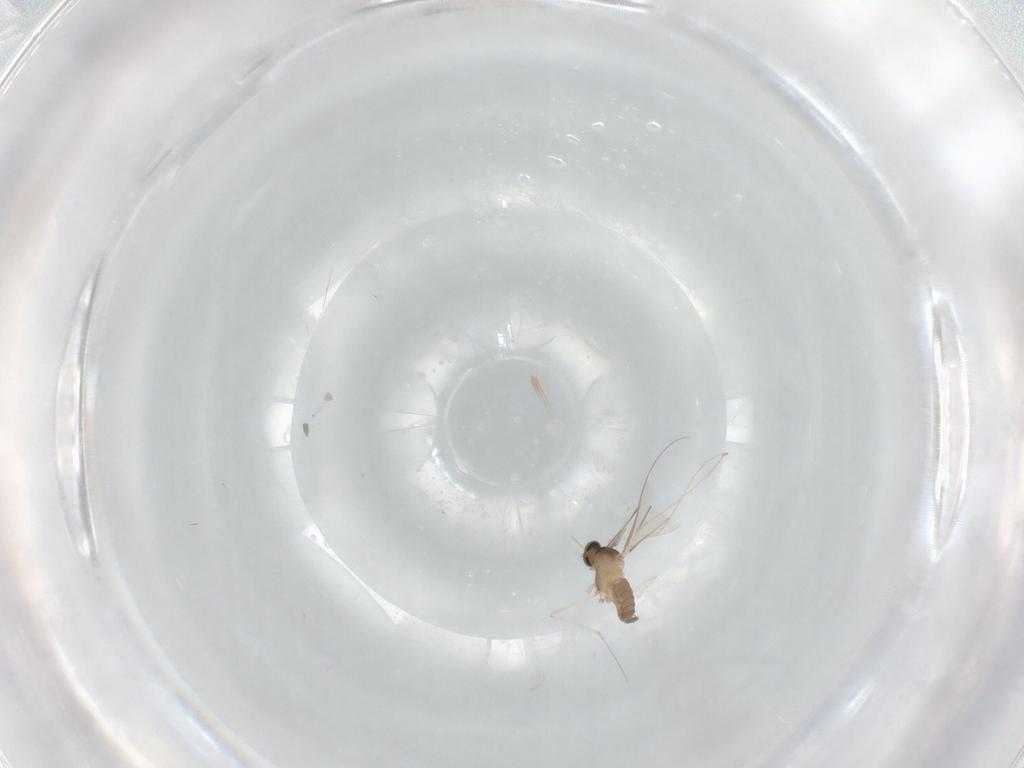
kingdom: Animalia
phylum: Arthropoda
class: Insecta
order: Diptera
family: Cecidomyiidae
